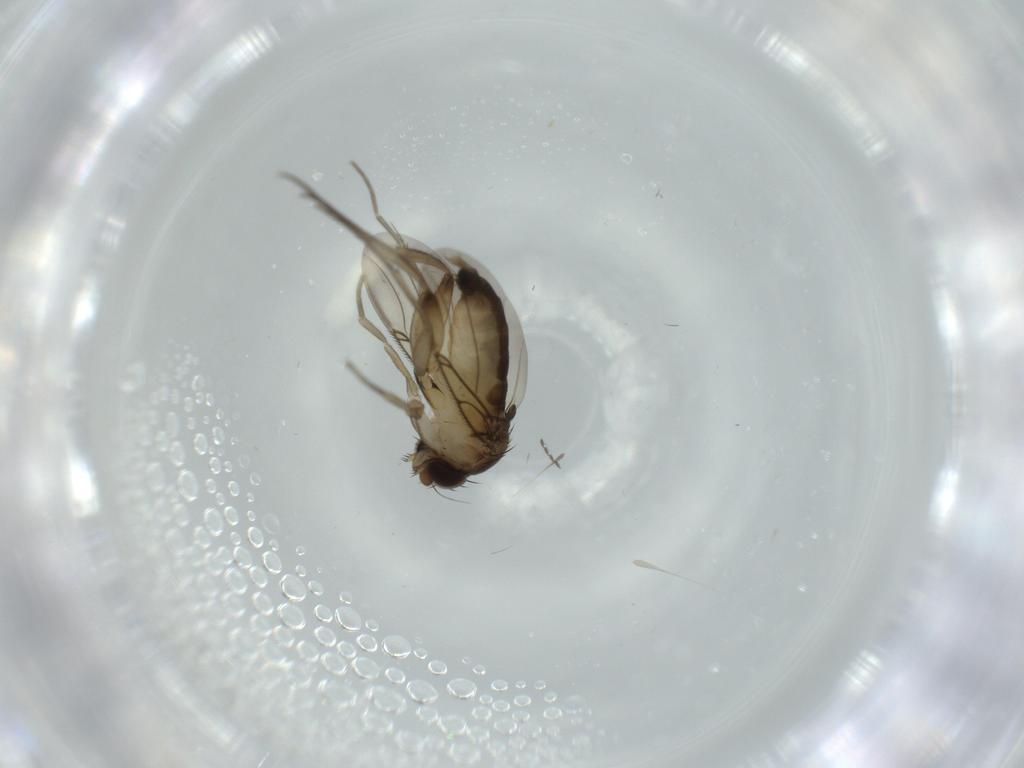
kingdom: Animalia
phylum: Arthropoda
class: Insecta
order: Diptera
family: Phoridae
